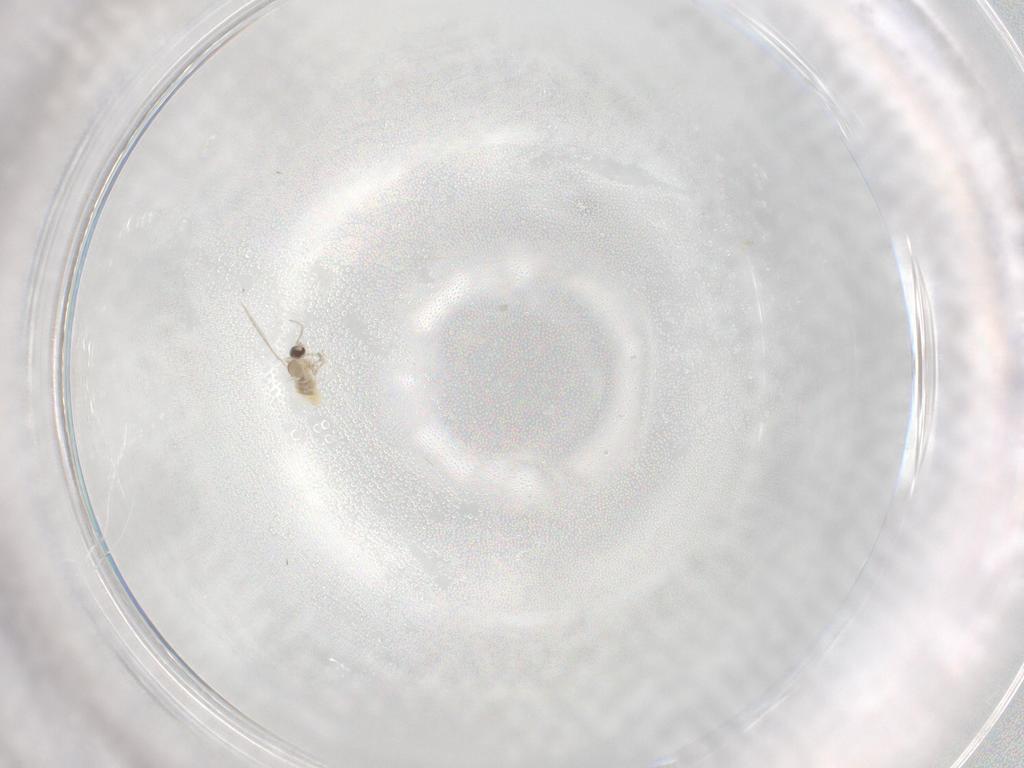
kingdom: Animalia
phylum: Arthropoda
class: Insecta
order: Diptera
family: Cecidomyiidae
